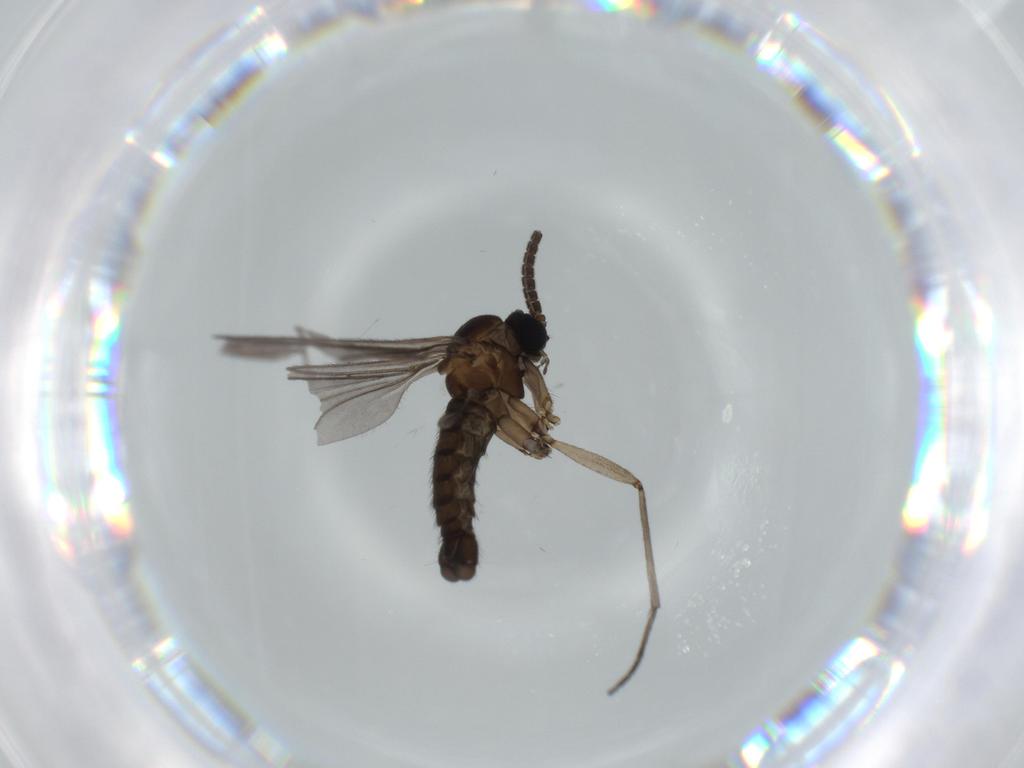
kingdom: Animalia
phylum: Arthropoda
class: Insecta
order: Diptera
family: Sciaridae
